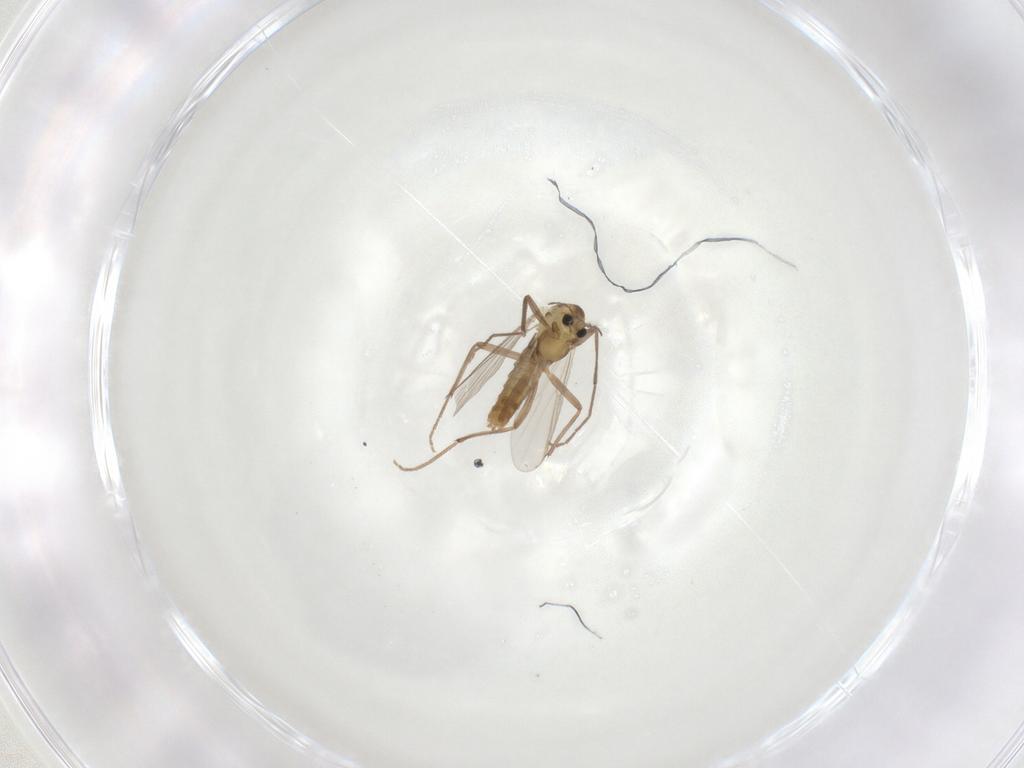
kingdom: Animalia
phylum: Arthropoda
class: Insecta
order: Diptera
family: Chironomidae
